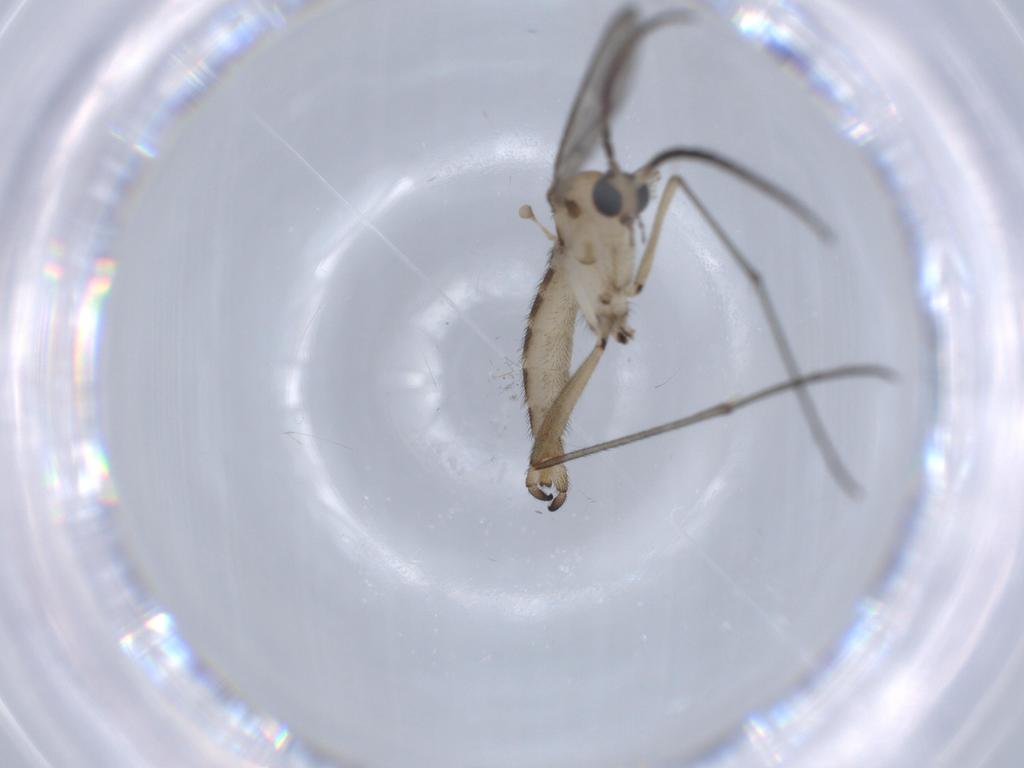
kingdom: Animalia
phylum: Arthropoda
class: Insecta
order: Diptera
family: Sciaridae
